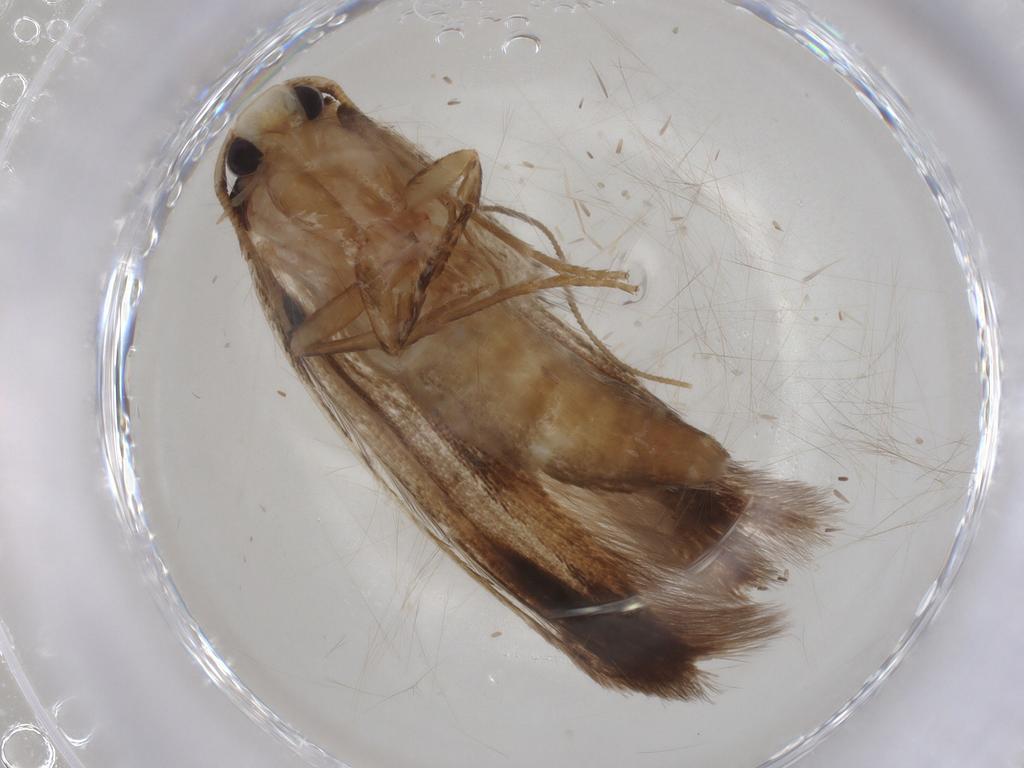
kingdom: Animalia
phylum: Arthropoda
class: Insecta
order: Lepidoptera
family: Tineidae
